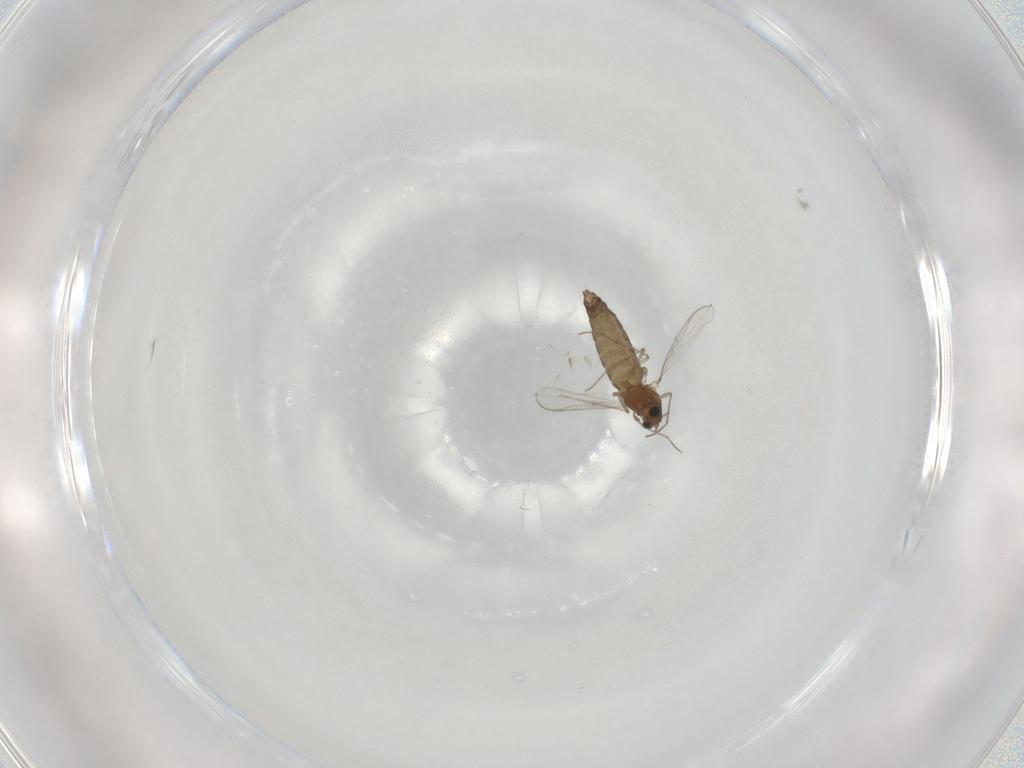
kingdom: Animalia
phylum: Arthropoda
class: Insecta
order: Diptera
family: Chironomidae
